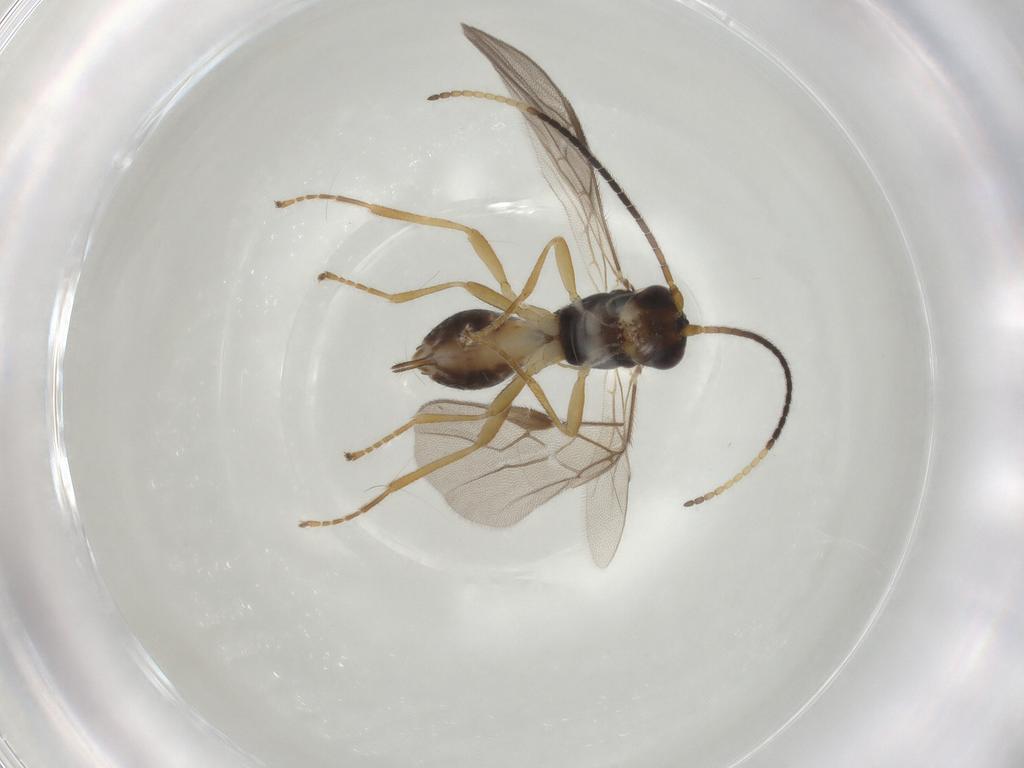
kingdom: Animalia
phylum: Arthropoda
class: Insecta
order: Hymenoptera
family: Braconidae
